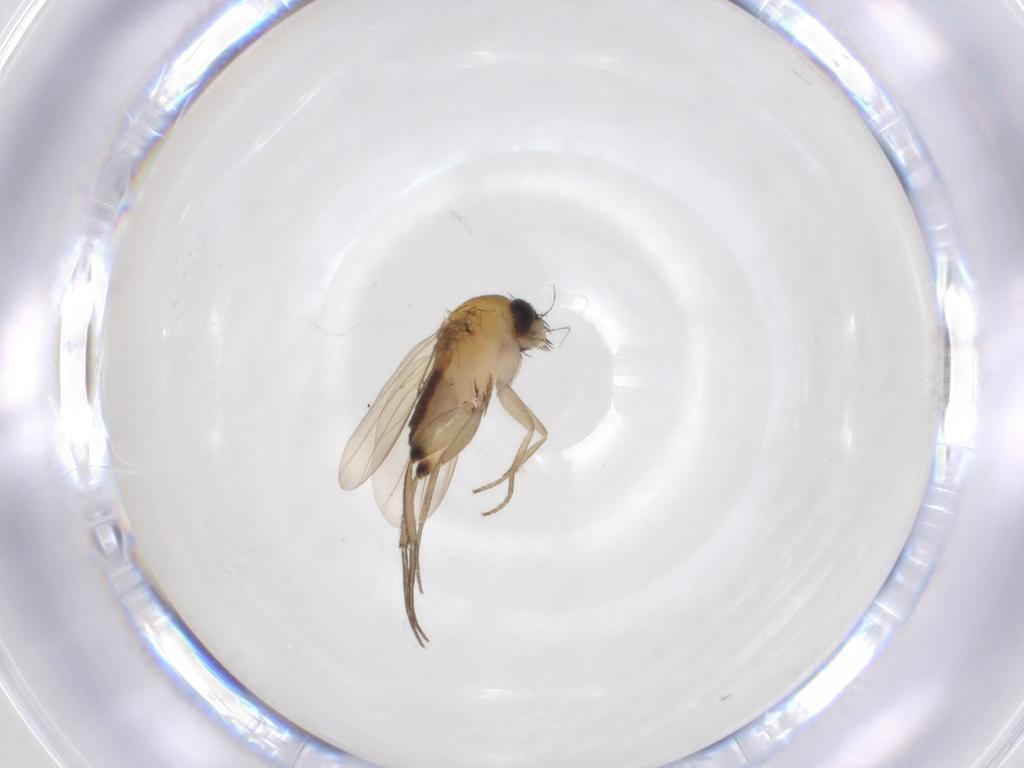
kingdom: Animalia
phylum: Arthropoda
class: Insecta
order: Diptera
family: Phoridae
